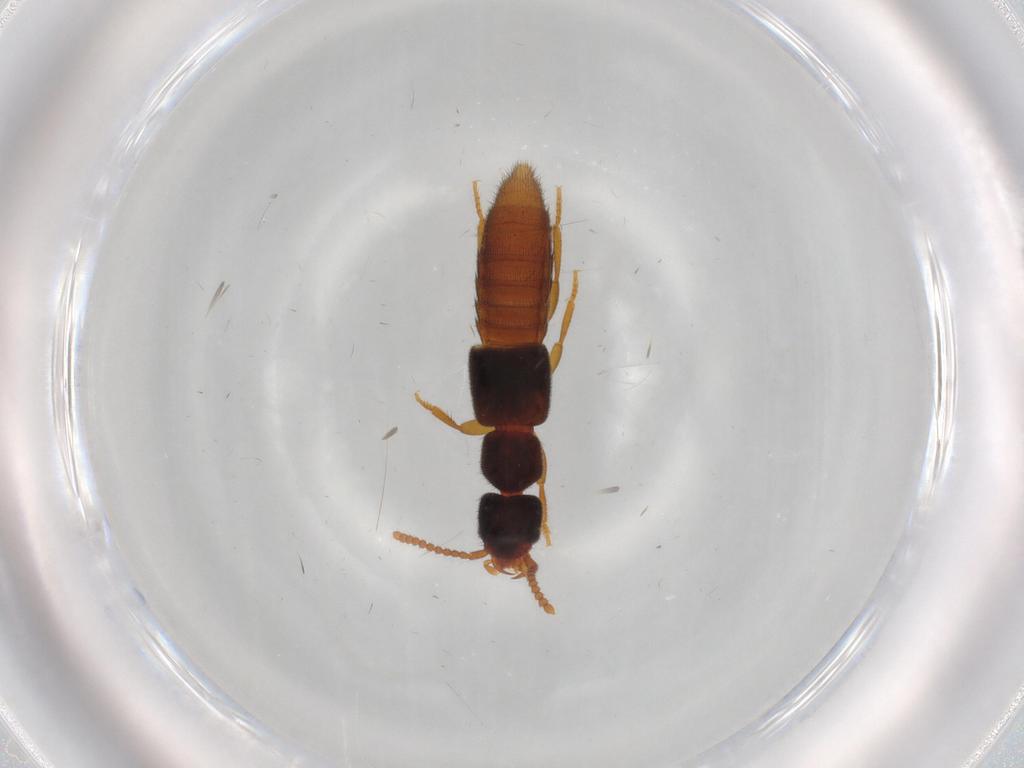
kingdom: Animalia
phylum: Arthropoda
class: Insecta
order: Coleoptera
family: Staphylinidae
